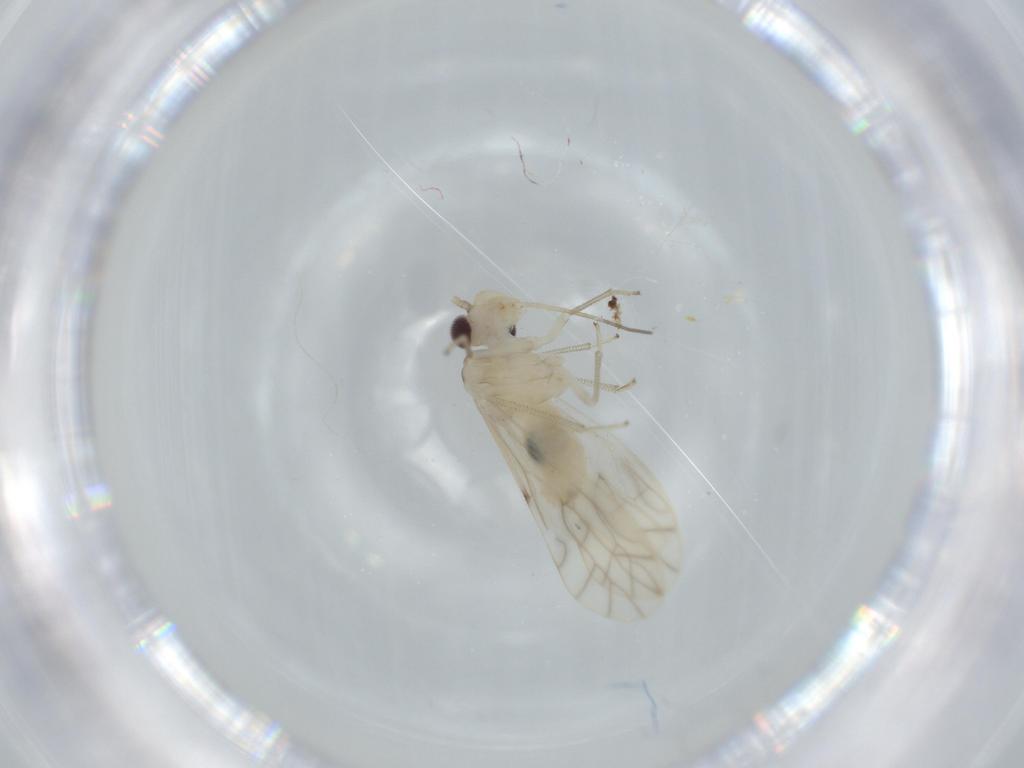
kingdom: Animalia
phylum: Arthropoda
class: Insecta
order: Psocodea
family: Caeciliusidae
